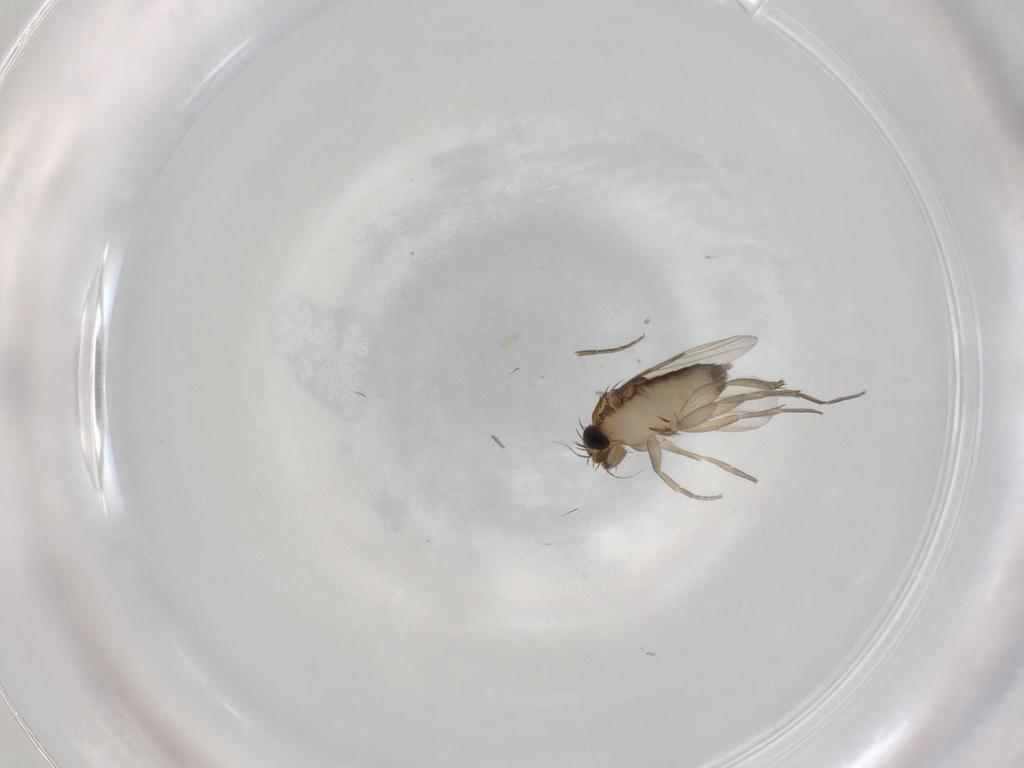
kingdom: Animalia
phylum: Arthropoda
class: Insecta
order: Diptera
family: Phoridae
